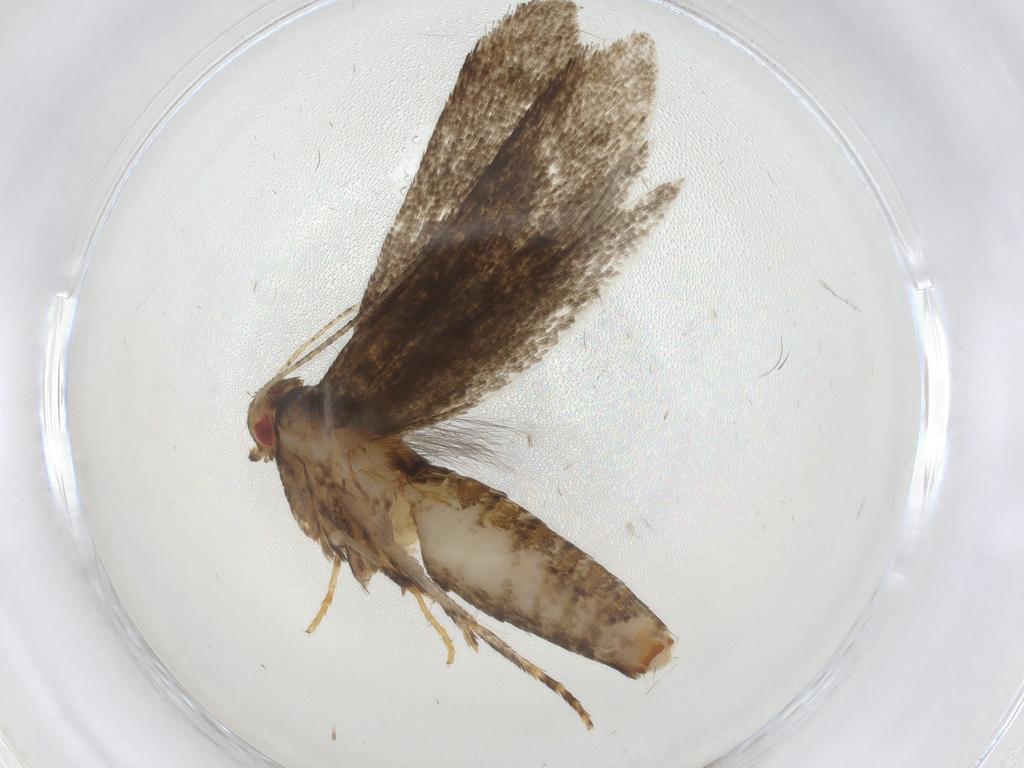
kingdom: Animalia
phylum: Arthropoda
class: Insecta
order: Lepidoptera
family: Erebidae
